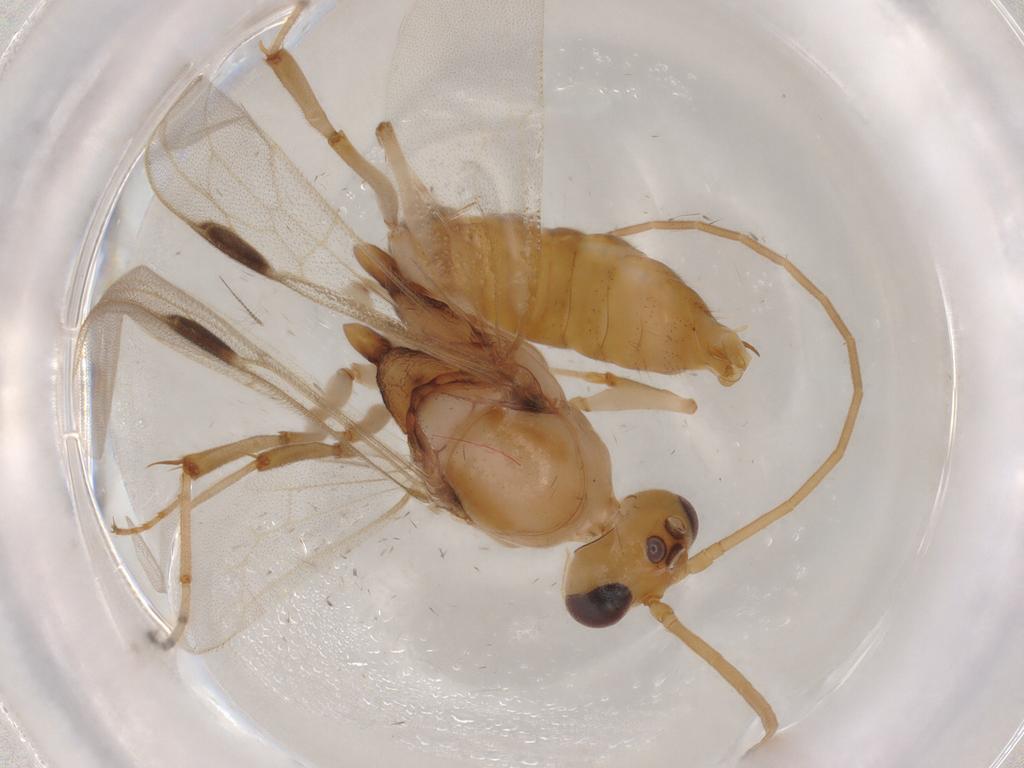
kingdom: Animalia
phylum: Arthropoda
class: Insecta
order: Hymenoptera
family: Formicidae
